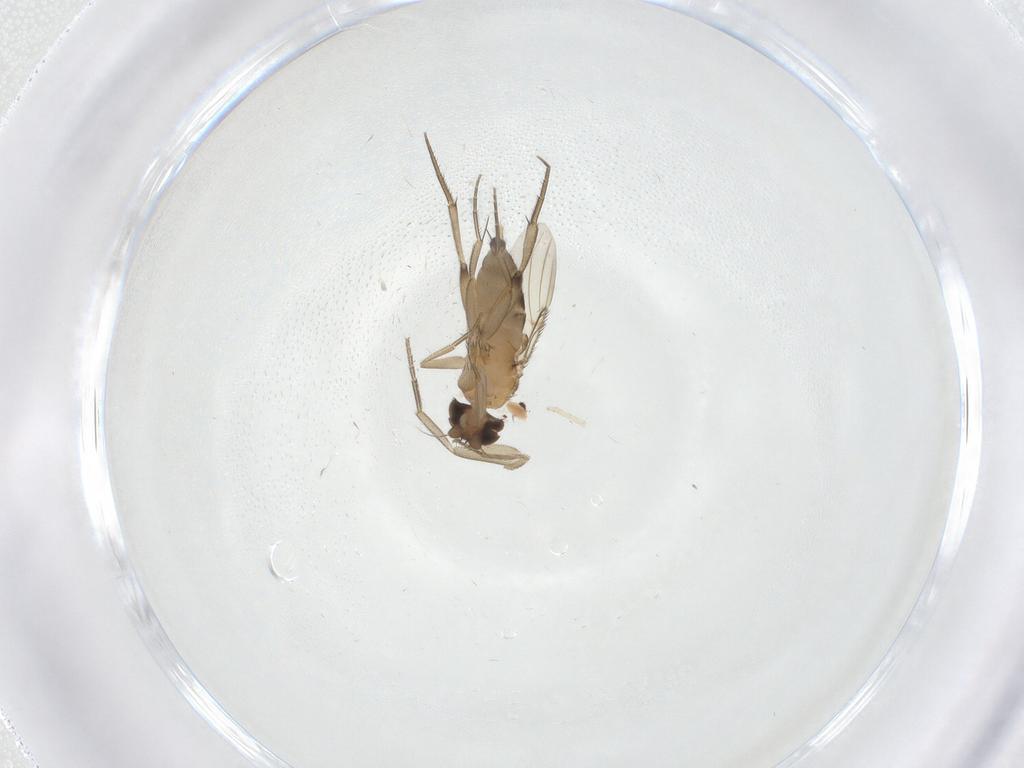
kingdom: Animalia
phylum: Arthropoda
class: Insecta
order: Diptera
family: Phoridae
